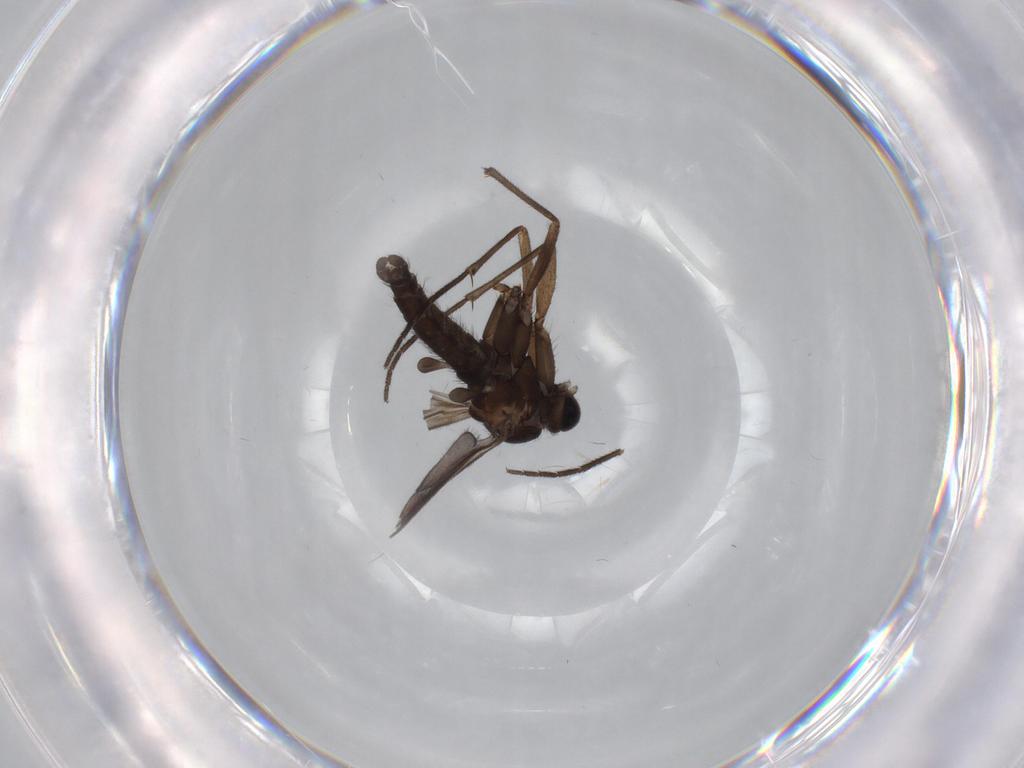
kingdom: Animalia
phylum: Arthropoda
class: Insecta
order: Diptera
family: Sciaridae
